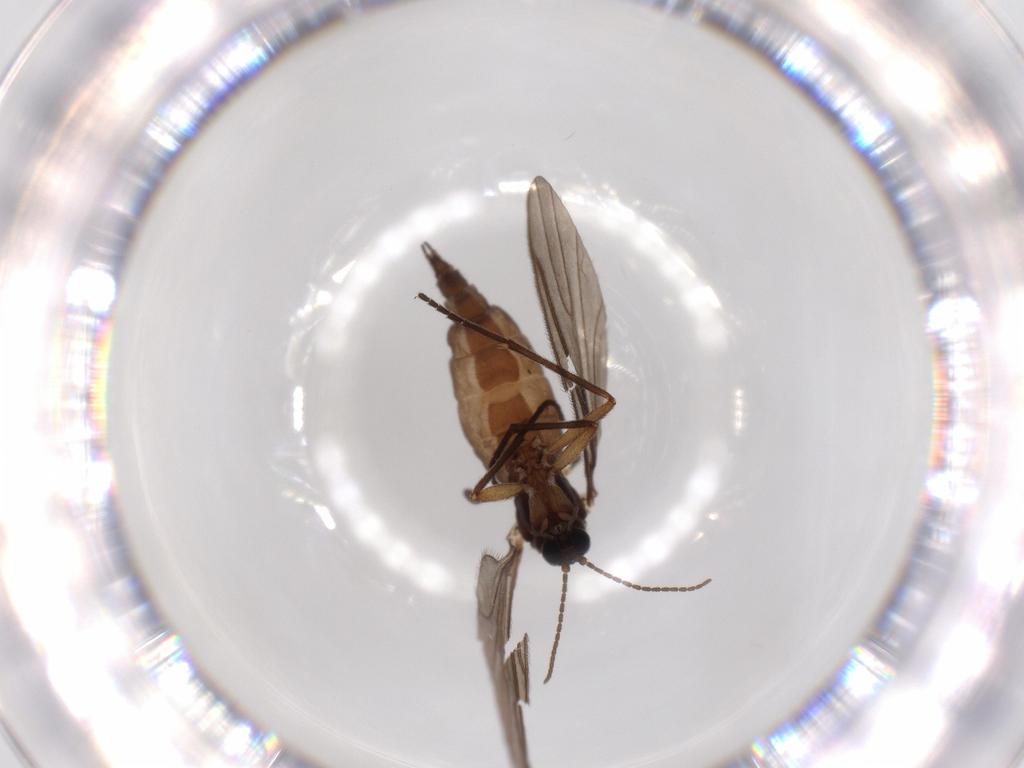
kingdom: Animalia
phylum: Arthropoda
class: Insecta
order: Diptera
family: Sciaridae
